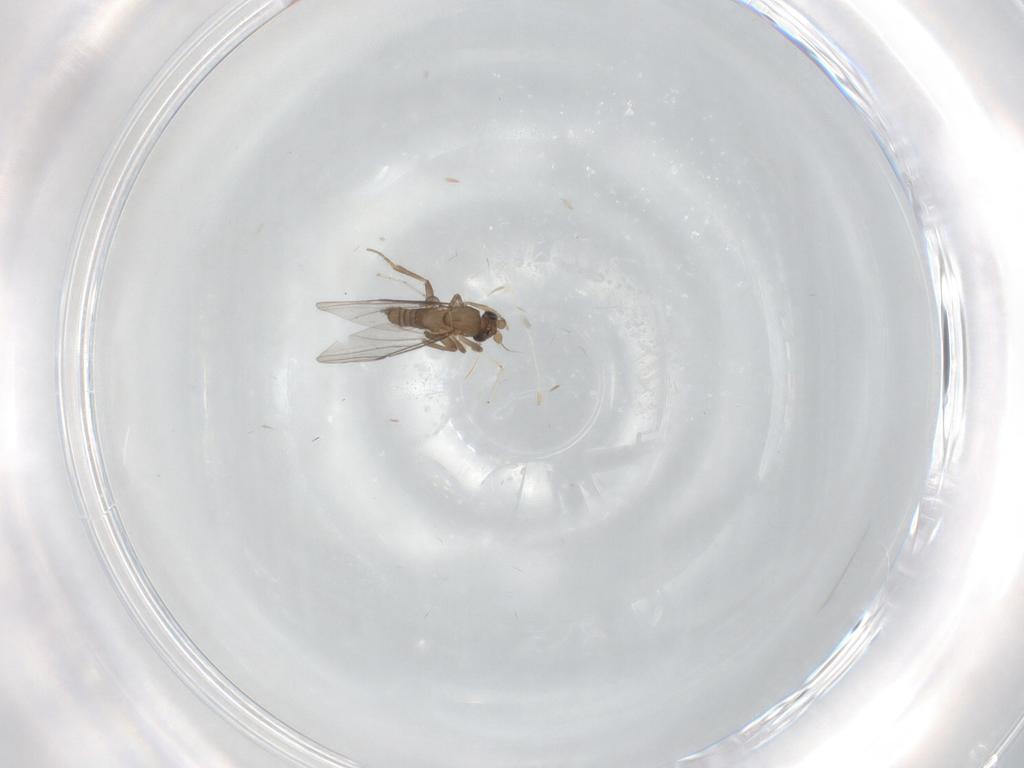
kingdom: Animalia
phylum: Arthropoda
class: Insecta
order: Diptera
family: Cecidomyiidae
